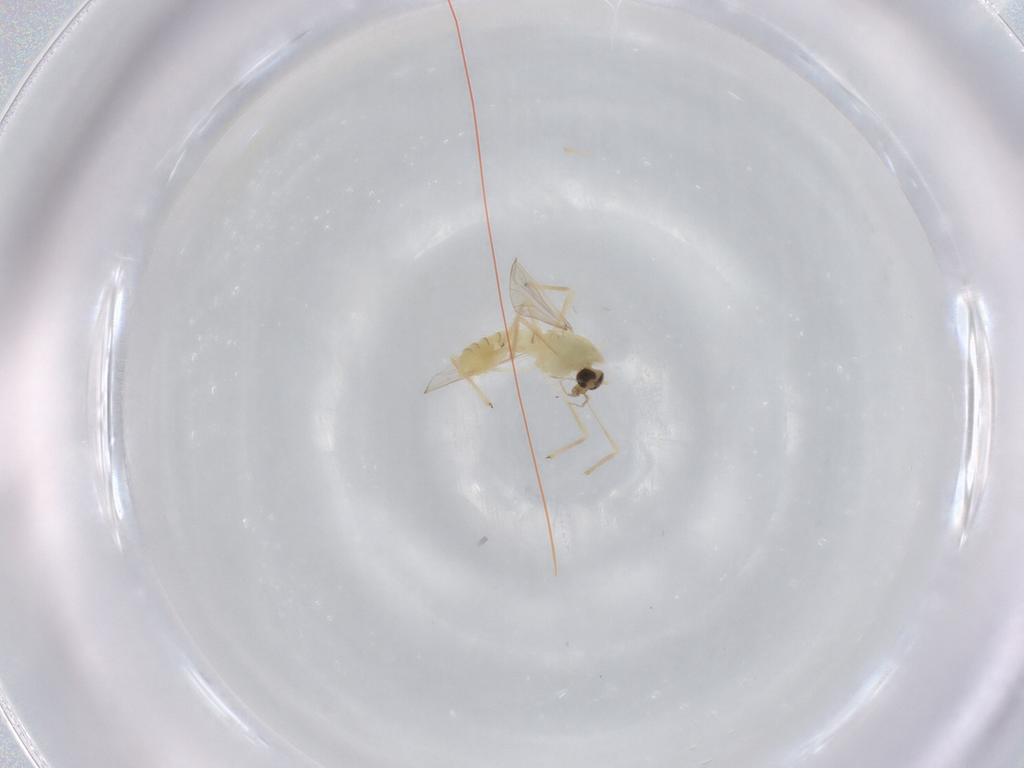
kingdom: Animalia
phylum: Arthropoda
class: Insecta
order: Diptera
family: Chironomidae
